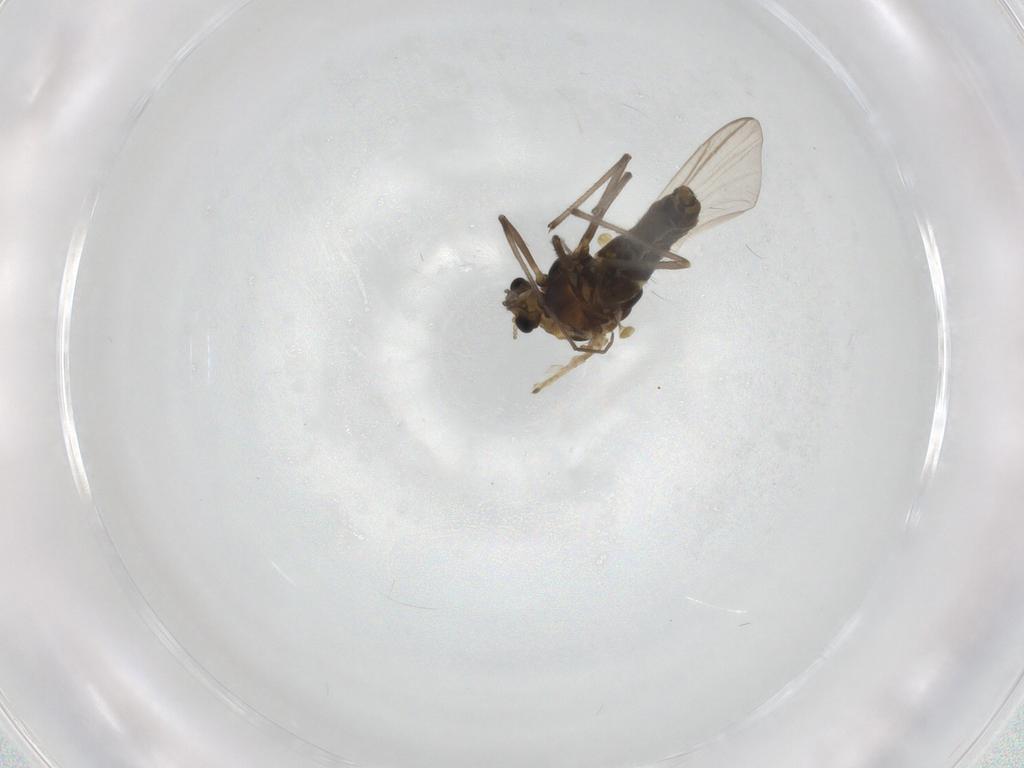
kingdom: Animalia
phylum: Arthropoda
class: Insecta
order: Diptera
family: Chironomidae
